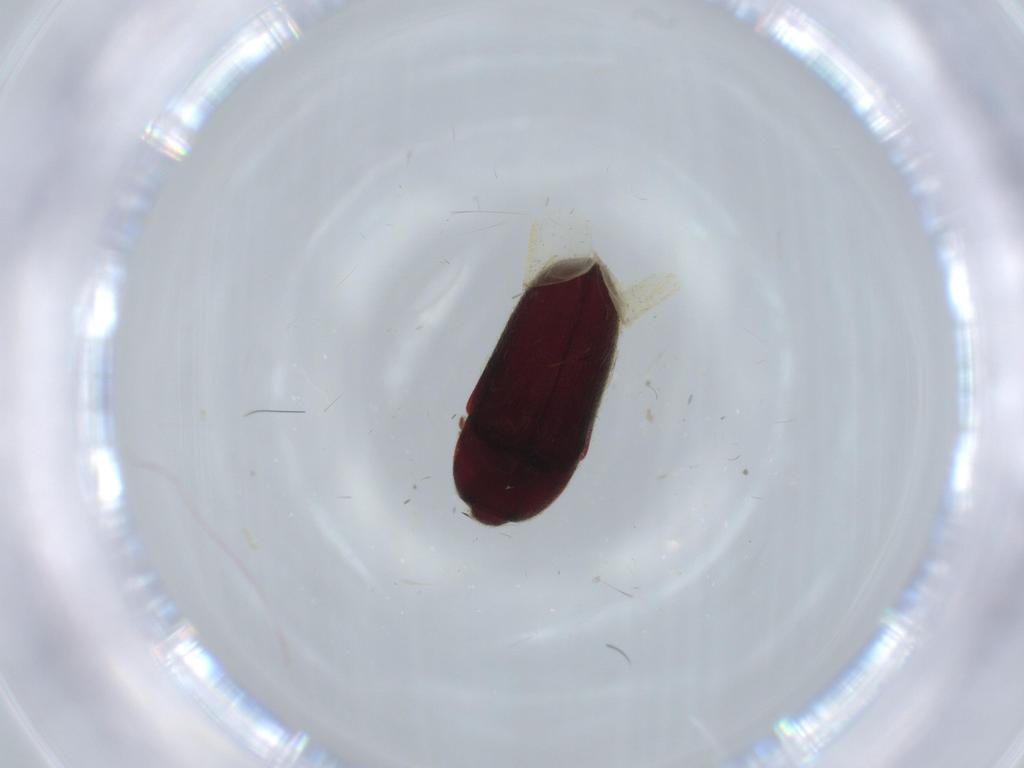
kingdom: Animalia
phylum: Arthropoda
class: Insecta
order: Coleoptera
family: Throscidae
